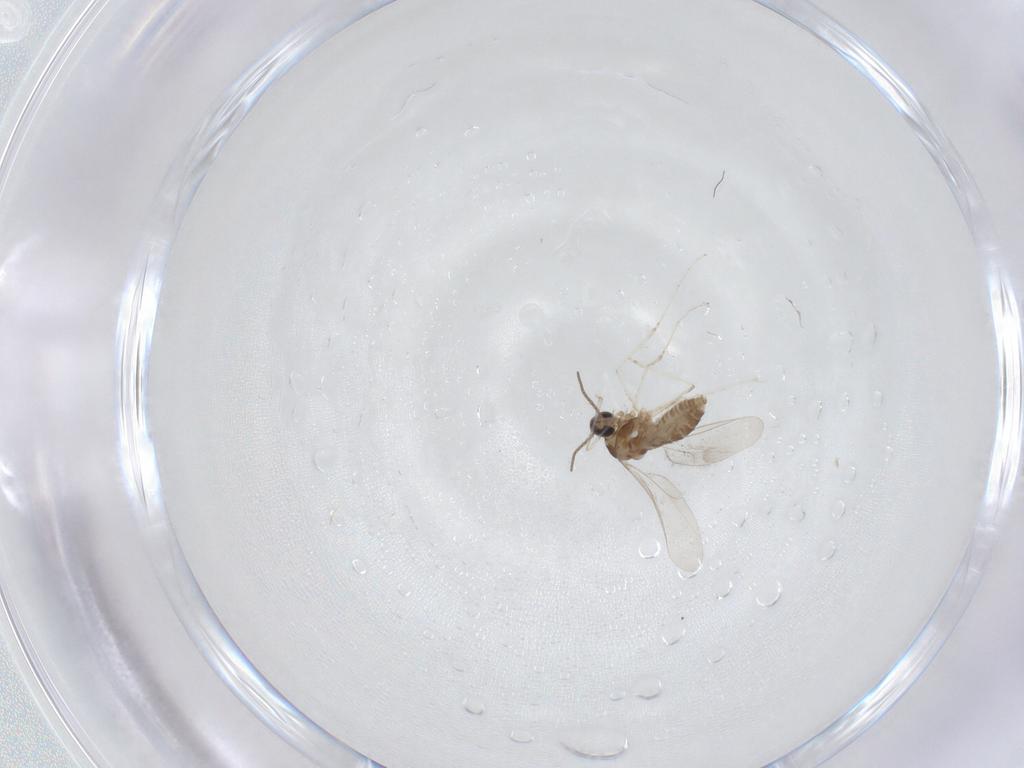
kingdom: Animalia
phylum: Arthropoda
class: Insecta
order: Diptera
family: Cecidomyiidae
